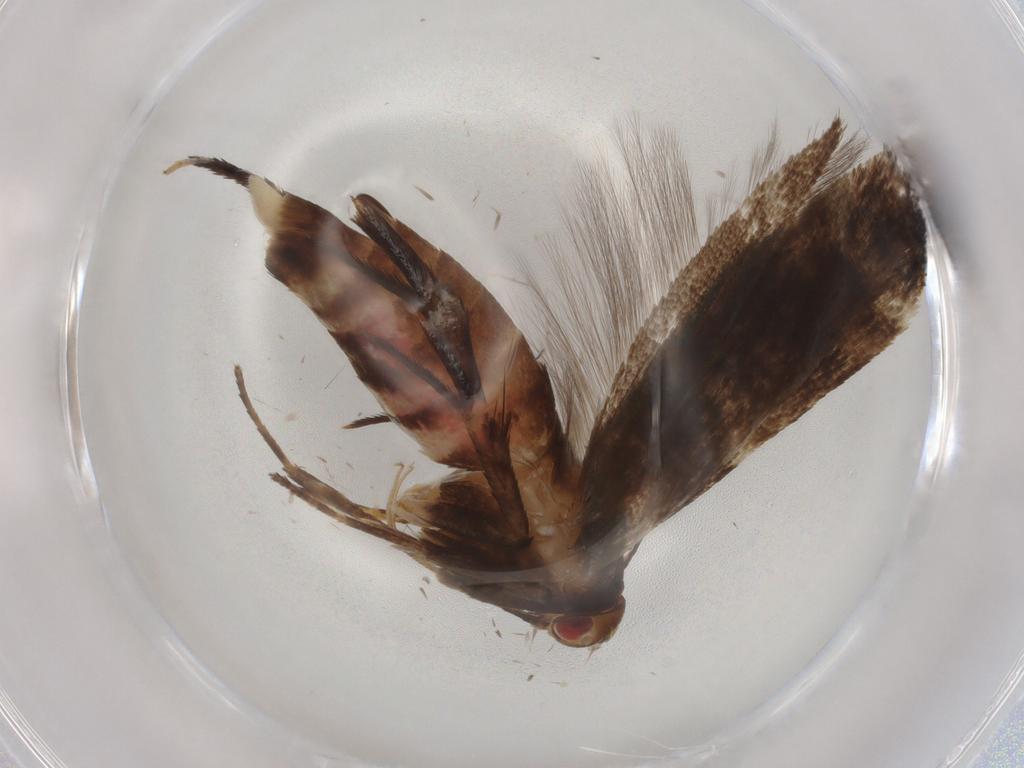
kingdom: Animalia
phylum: Arthropoda
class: Insecta
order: Lepidoptera
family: Cosmopterigidae
